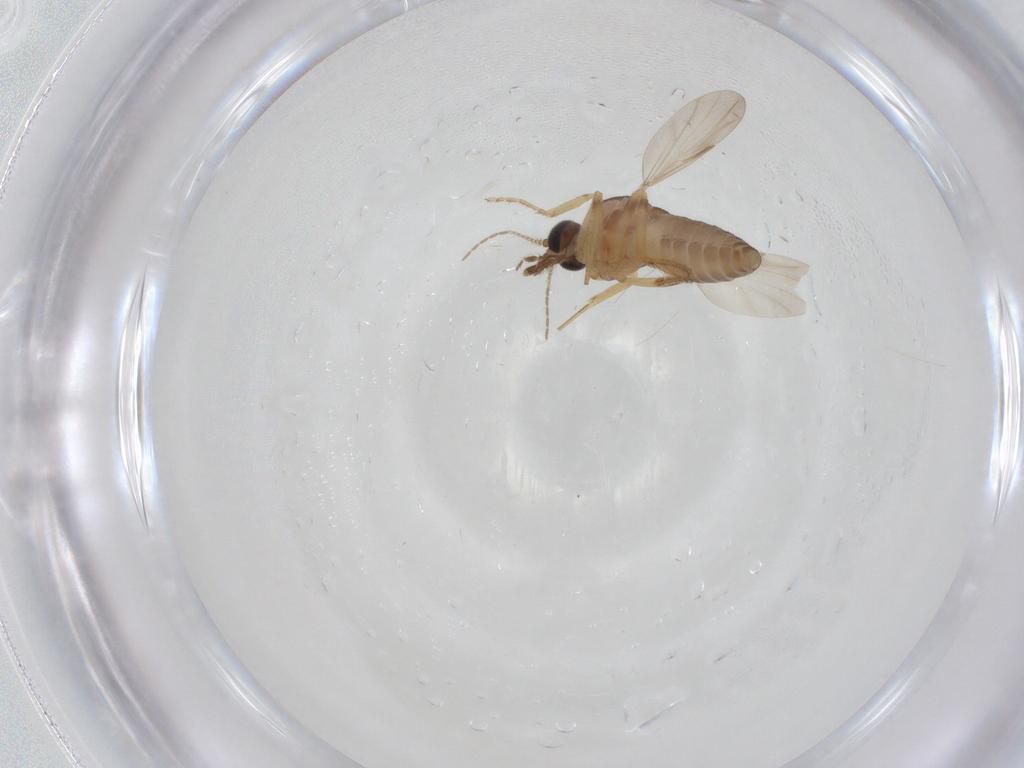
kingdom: Animalia
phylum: Arthropoda
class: Insecta
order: Diptera
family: Ceratopogonidae
